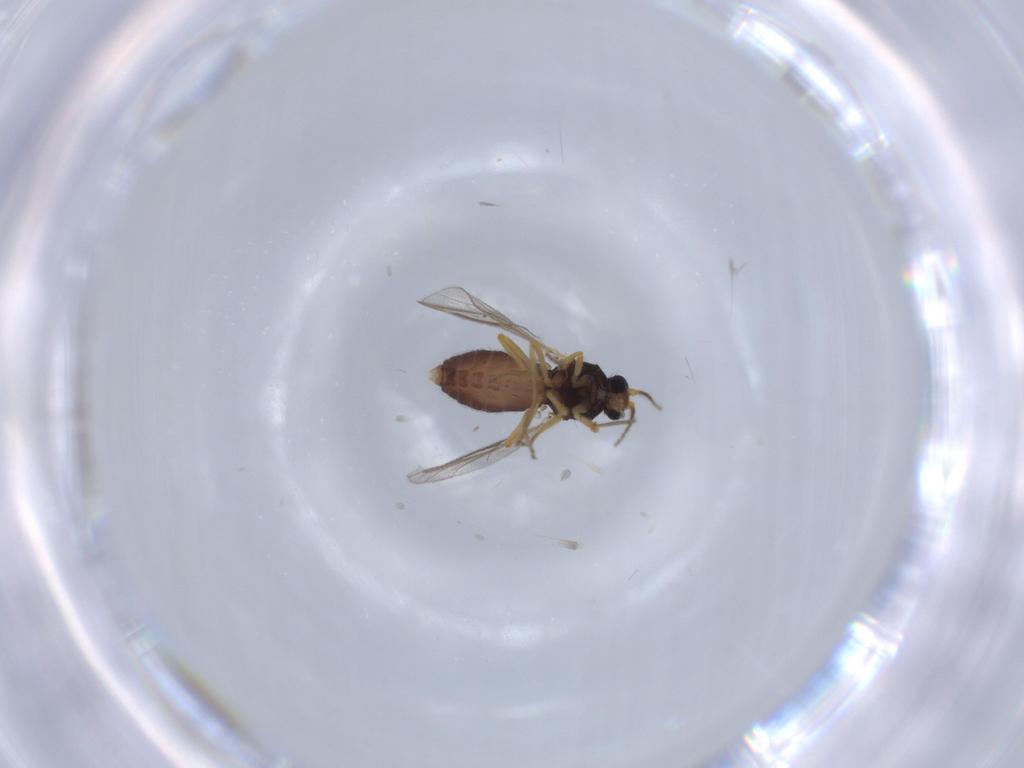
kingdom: Animalia
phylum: Arthropoda
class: Insecta
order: Diptera
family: Ceratopogonidae
